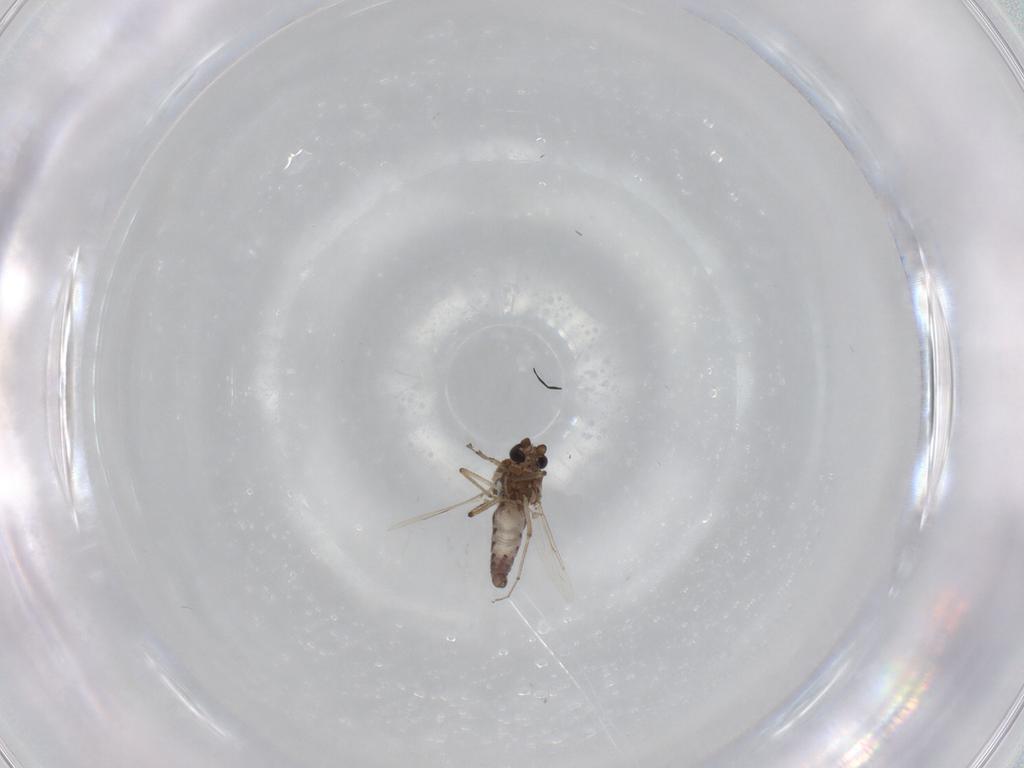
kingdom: Animalia
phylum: Arthropoda
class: Insecta
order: Diptera
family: Ceratopogonidae
